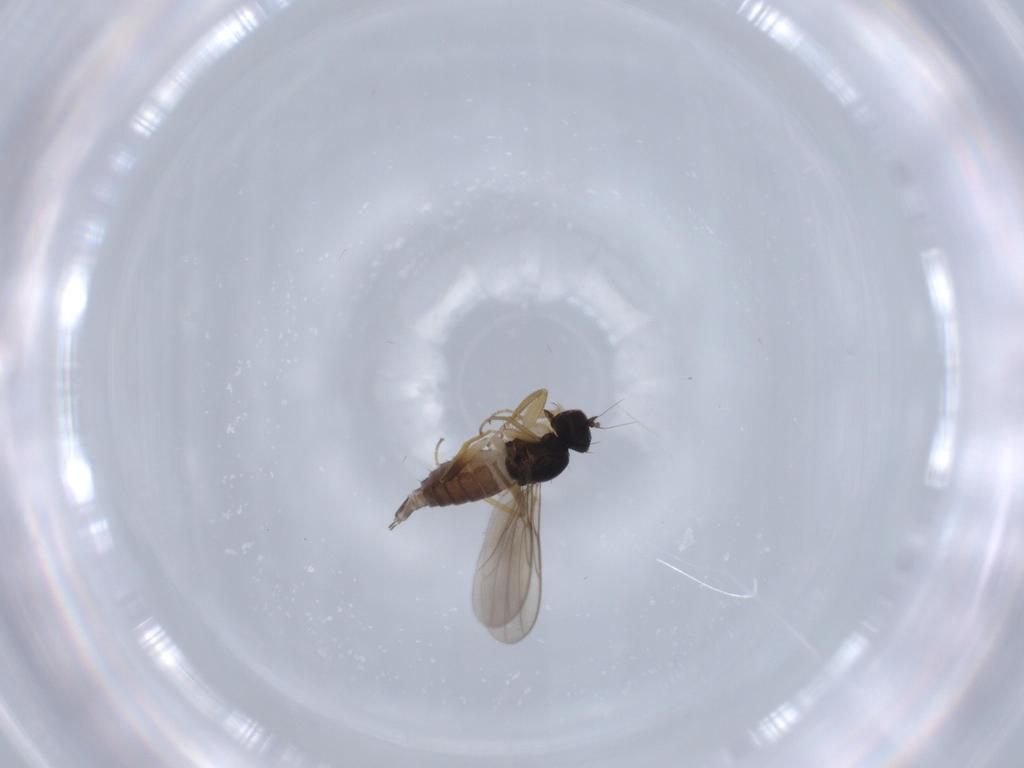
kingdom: Animalia
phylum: Arthropoda
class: Insecta
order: Diptera
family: Hybotidae
